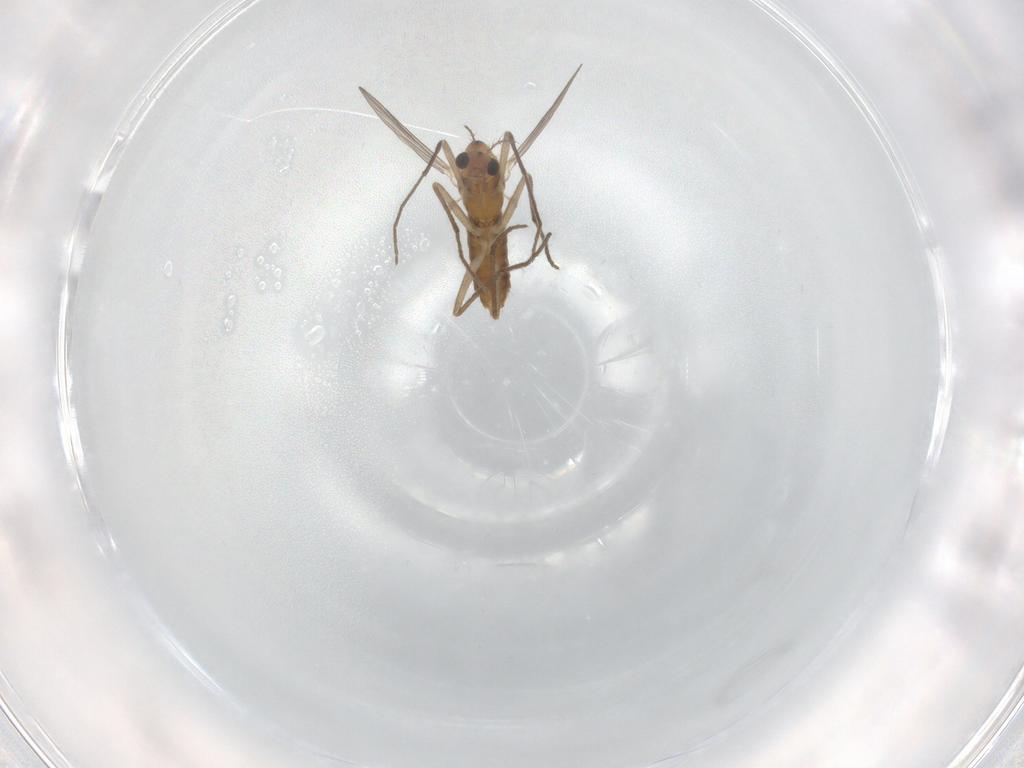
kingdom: Animalia
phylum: Arthropoda
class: Insecta
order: Diptera
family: Chironomidae
